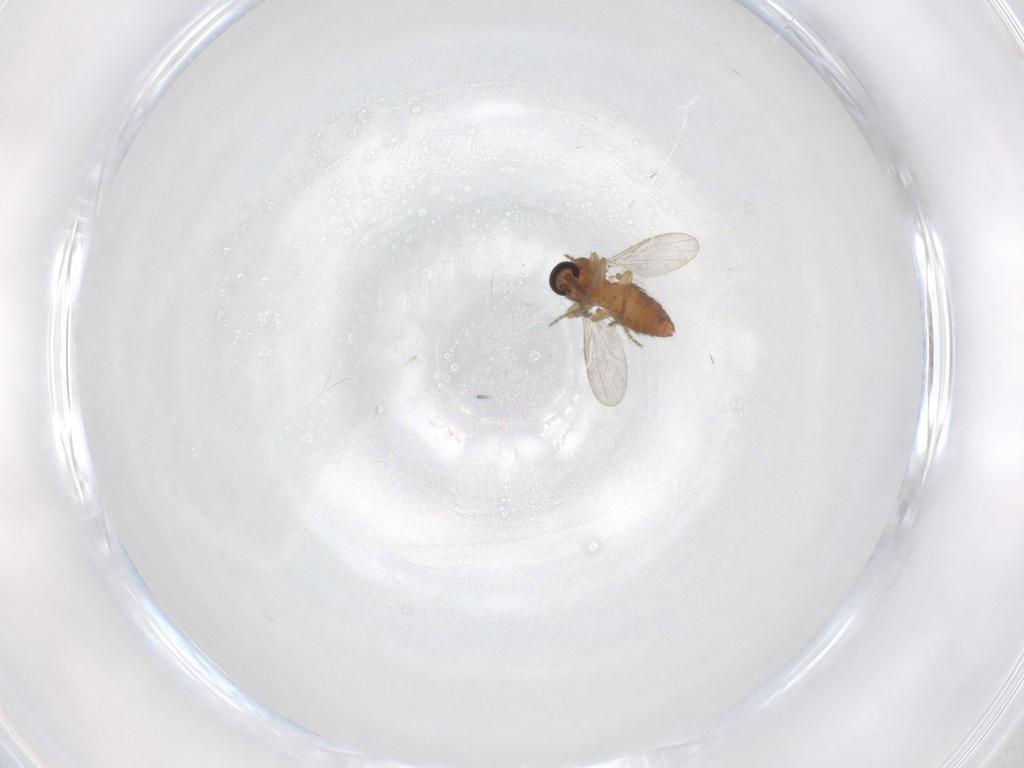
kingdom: Animalia
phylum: Arthropoda
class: Insecta
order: Diptera
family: Ceratopogonidae
